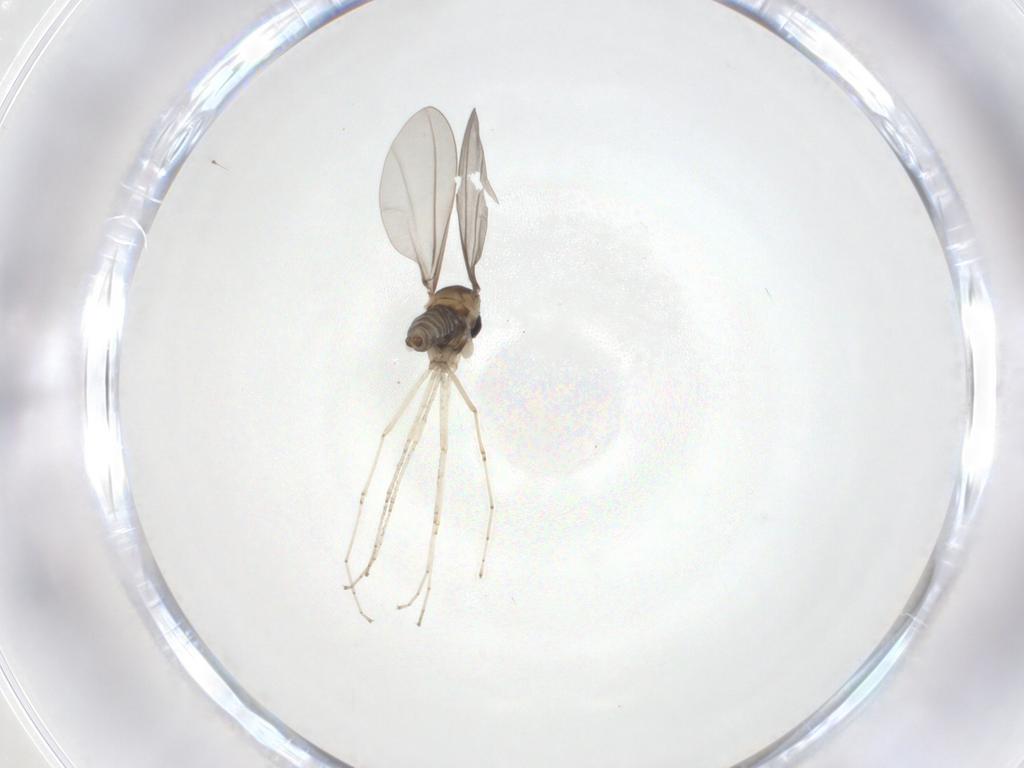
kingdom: Animalia
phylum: Arthropoda
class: Insecta
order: Diptera
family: Cecidomyiidae
